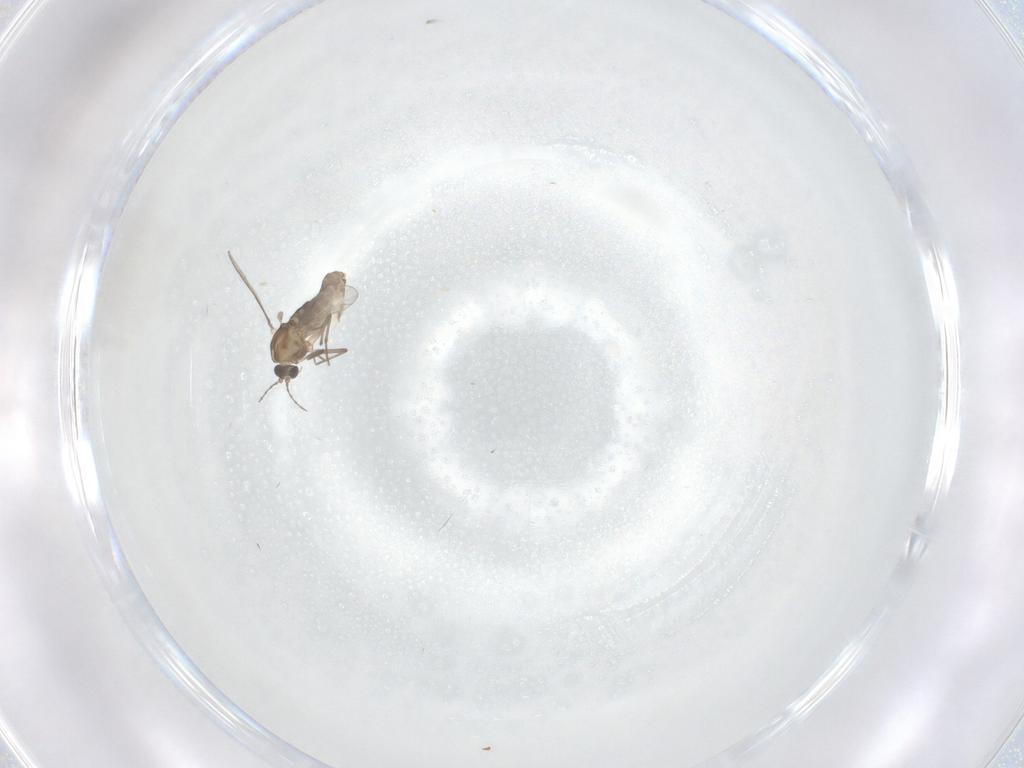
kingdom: Animalia
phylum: Arthropoda
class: Insecta
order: Diptera
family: Chironomidae
